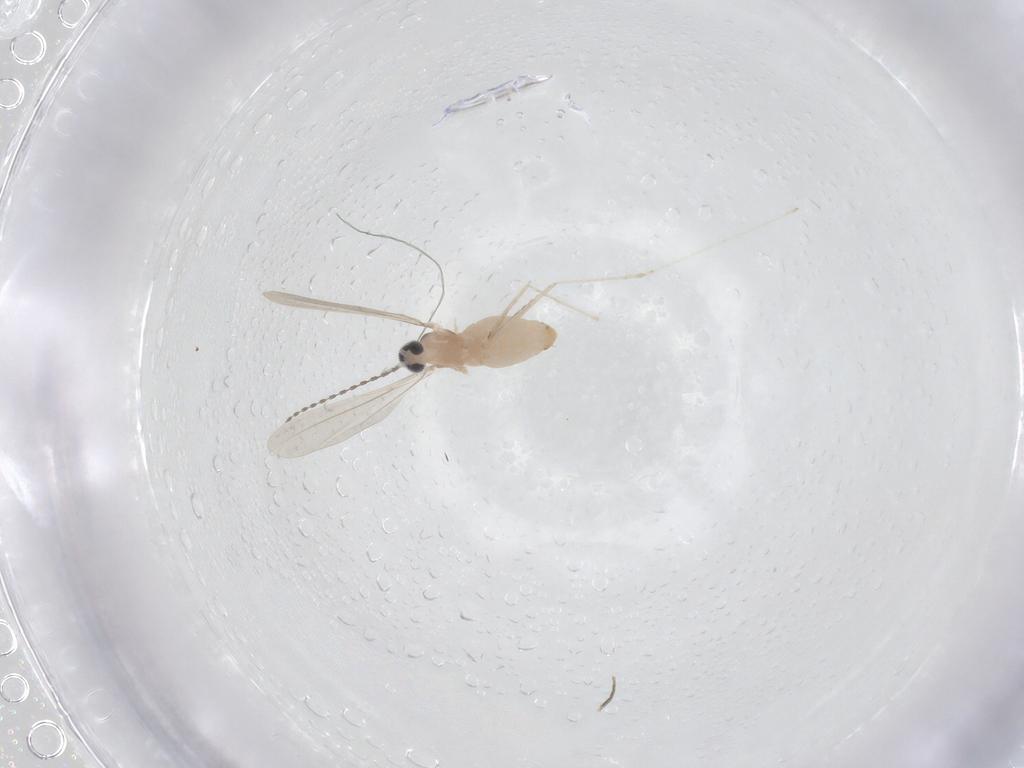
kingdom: Animalia
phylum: Arthropoda
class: Insecta
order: Diptera
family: Cecidomyiidae
